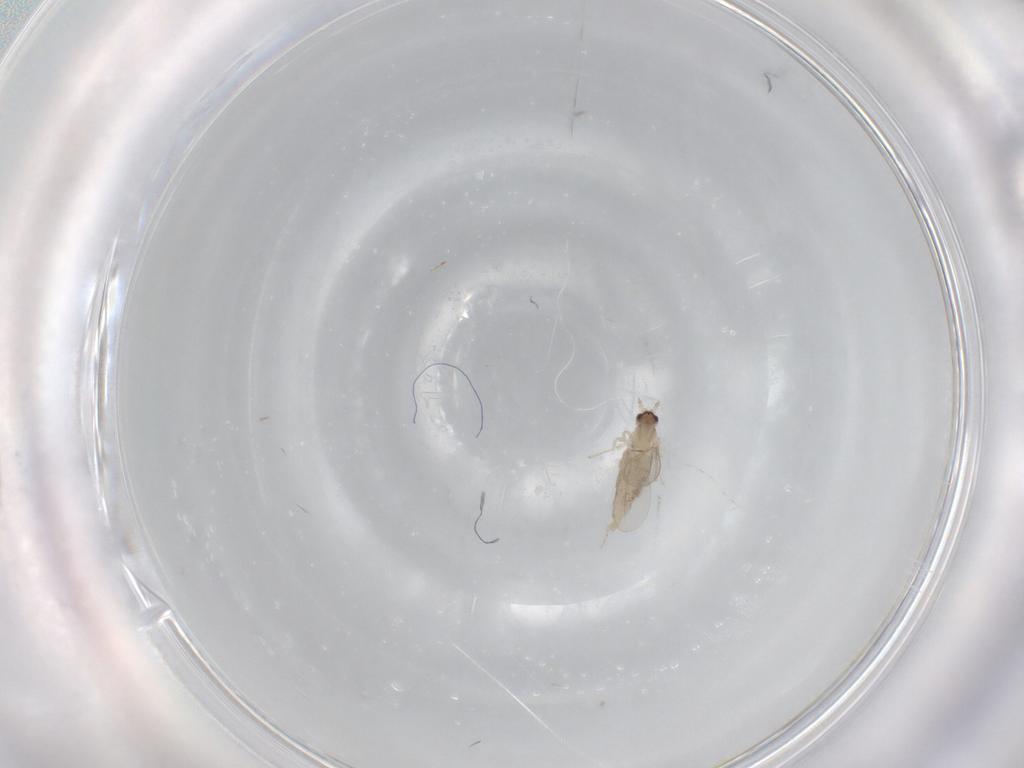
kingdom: Animalia
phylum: Arthropoda
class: Insecta
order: Diptera
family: Cecidomyiidae
